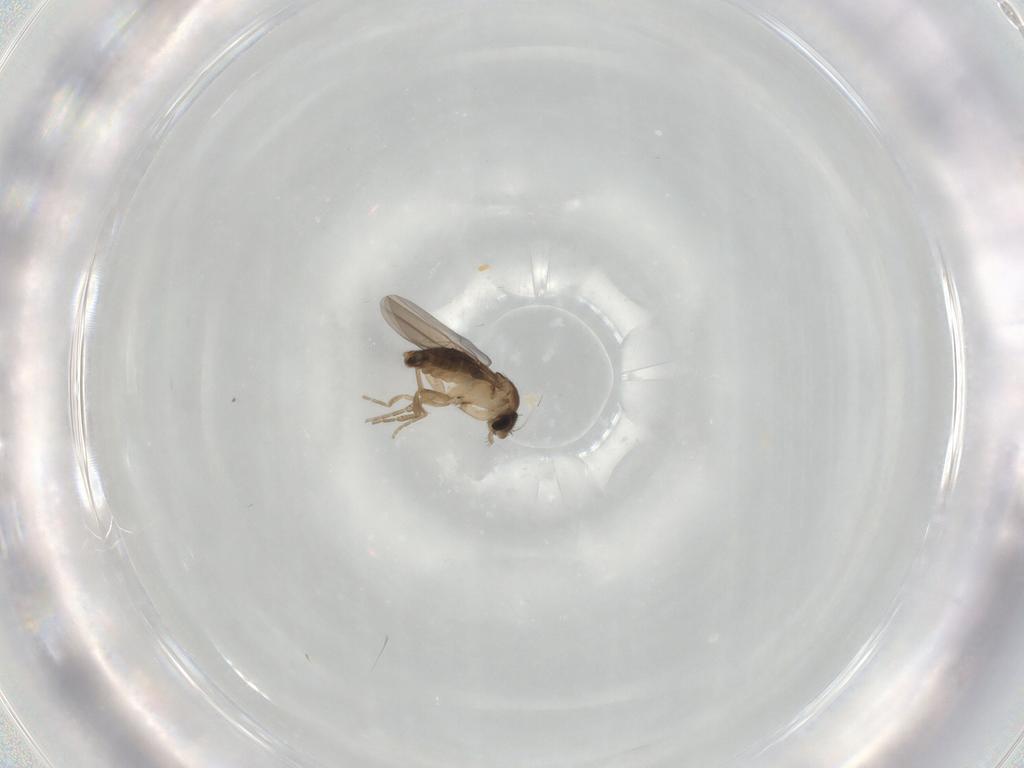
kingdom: Animalia
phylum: Arthropoda
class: Insecta
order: Diptera
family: Phoridae
